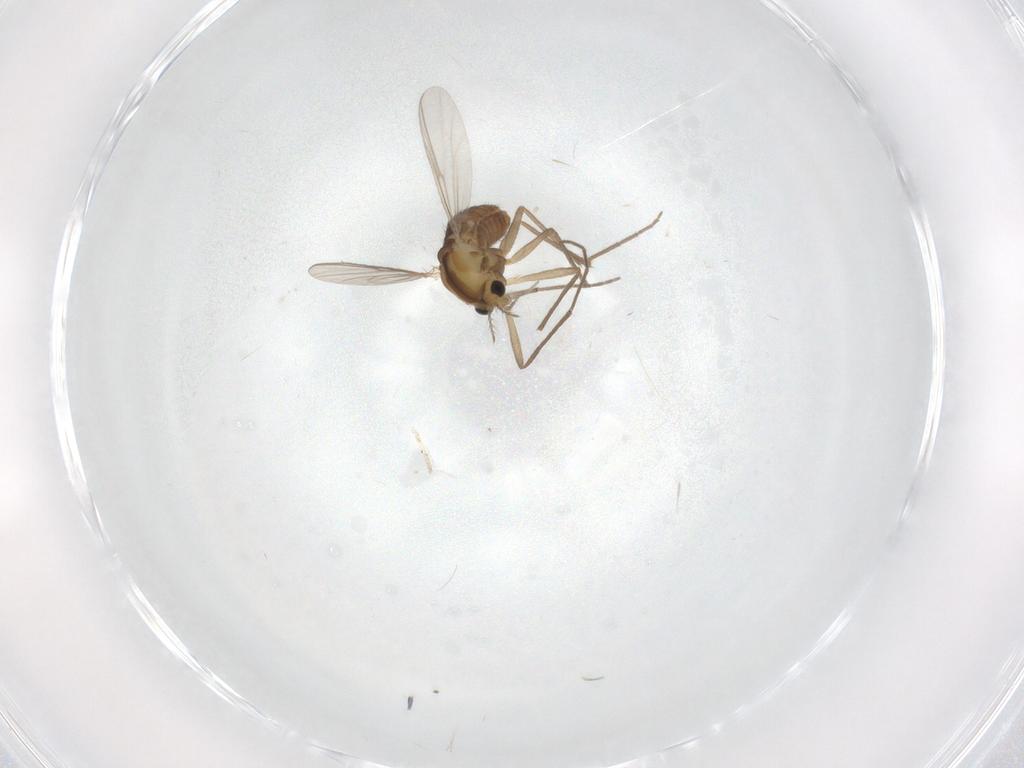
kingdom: Animalia
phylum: Arthropoda
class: Insecta
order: Diptera
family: Chironomidae
